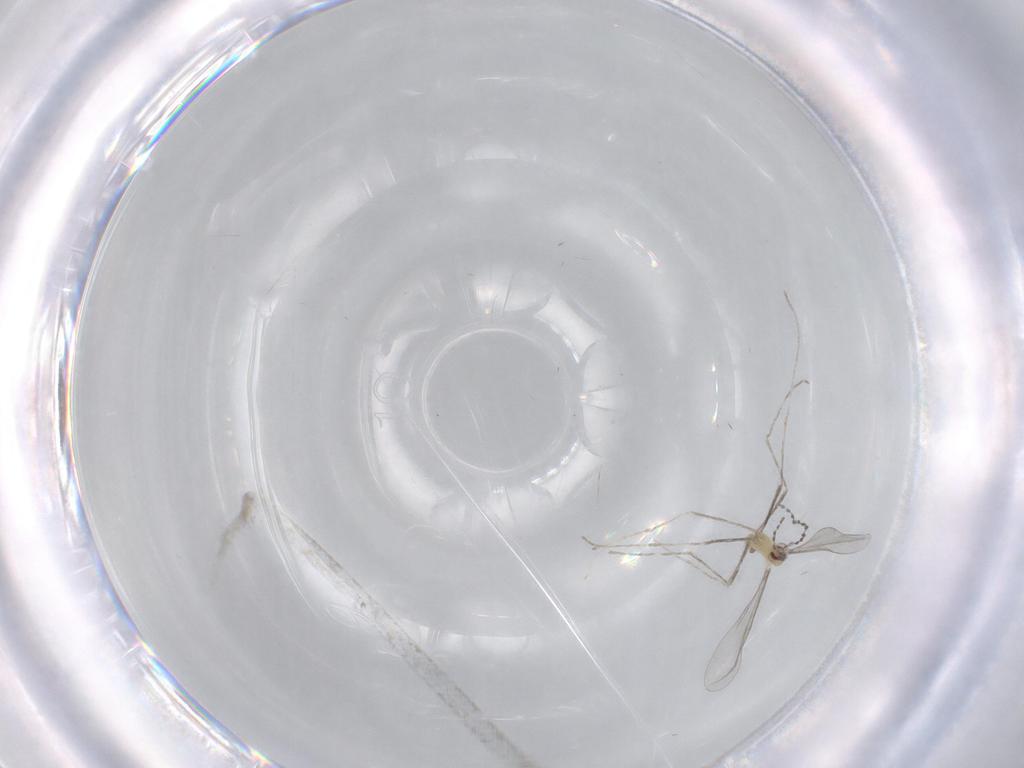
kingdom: Animalia
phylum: Arthropoda
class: Insecta
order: Diptera
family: Cecidomyiidae
